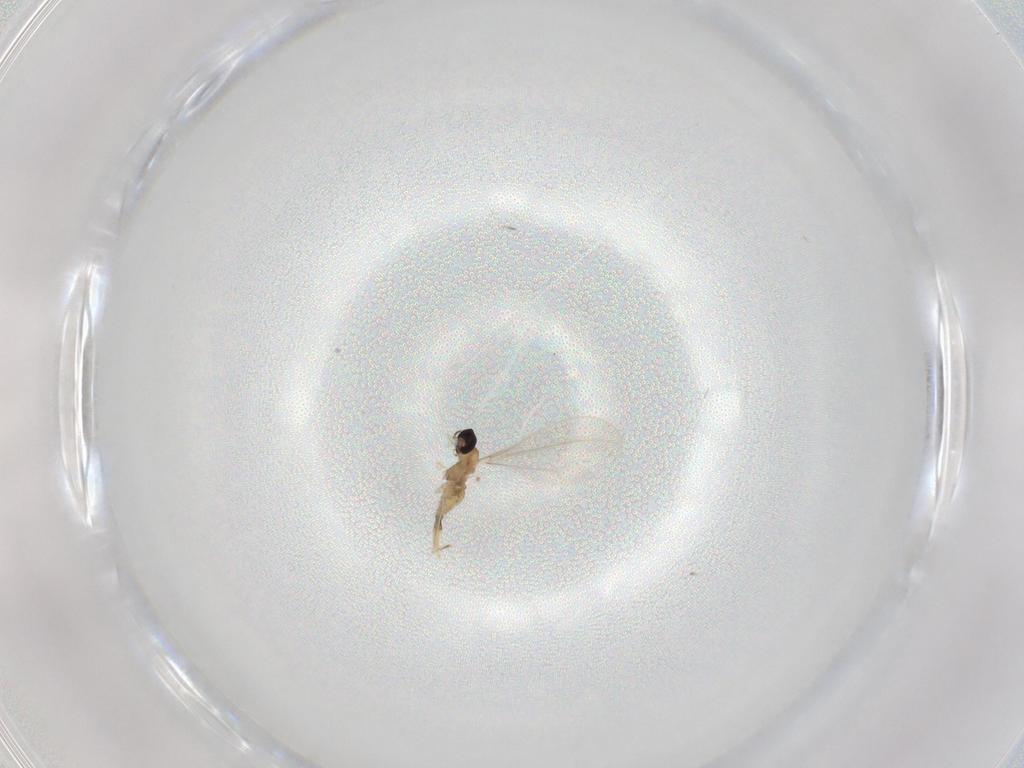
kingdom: Animalia
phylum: Arthropoda
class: Insecta
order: Diptera
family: Cecidomyiidae
